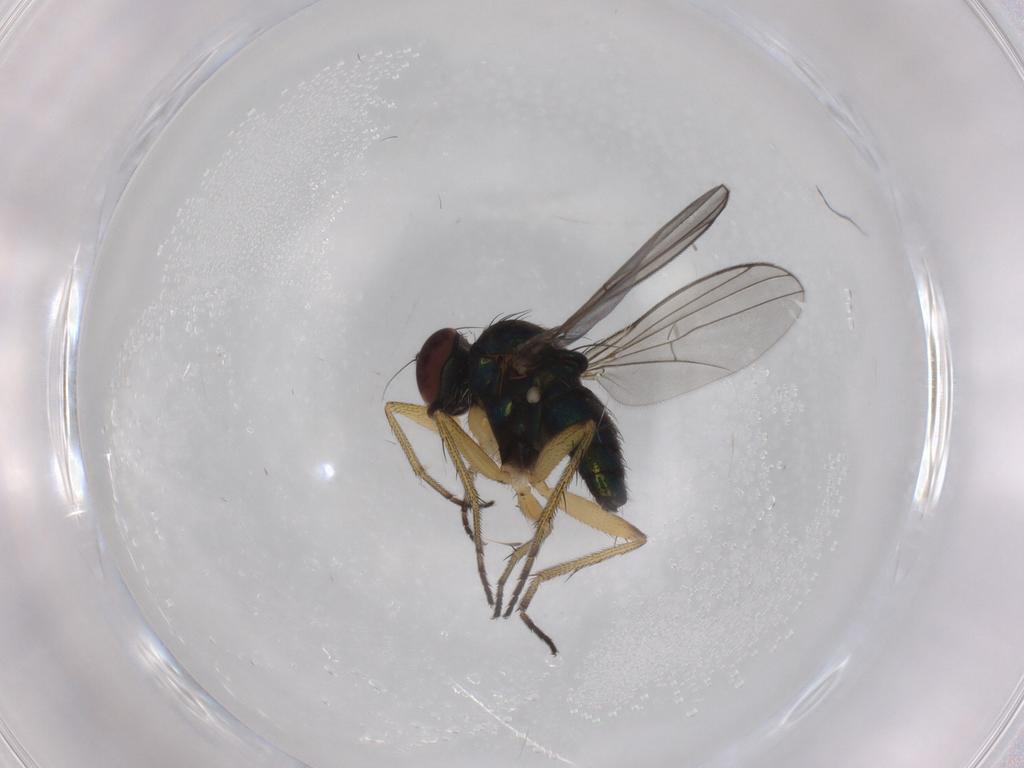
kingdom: Animalia
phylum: Arthropoda
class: Insecta
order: Diptera
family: Dolichopodidae
